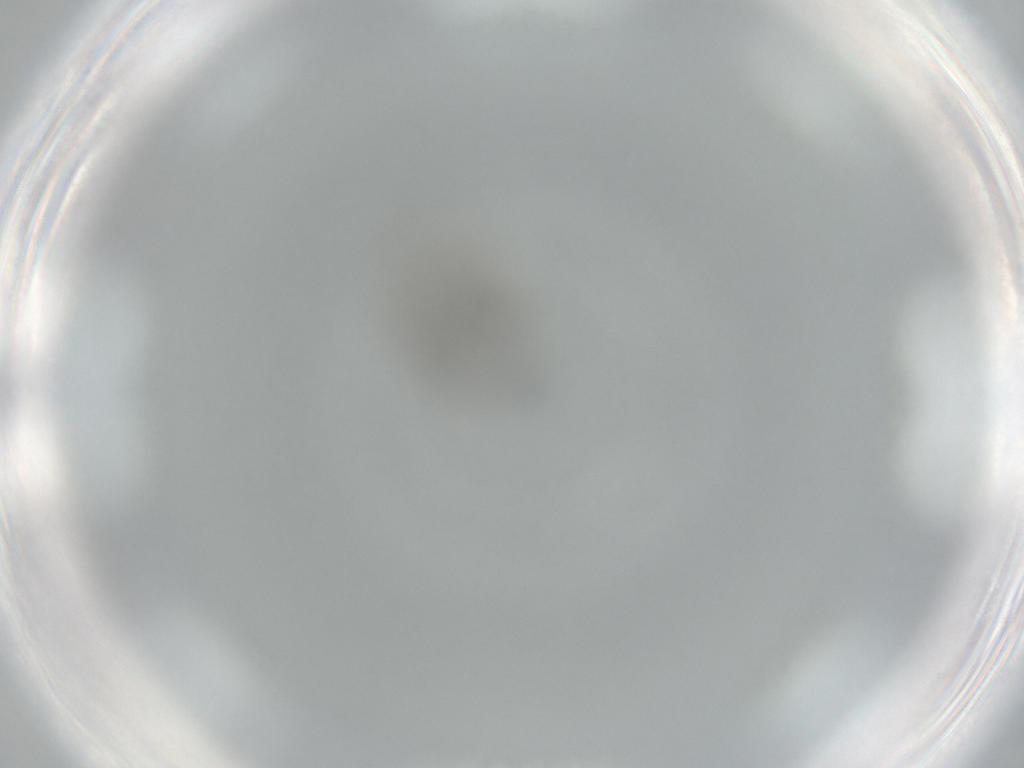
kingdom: Animalia
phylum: Arthropoda
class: Insecta
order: Diptera
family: Phoridae
